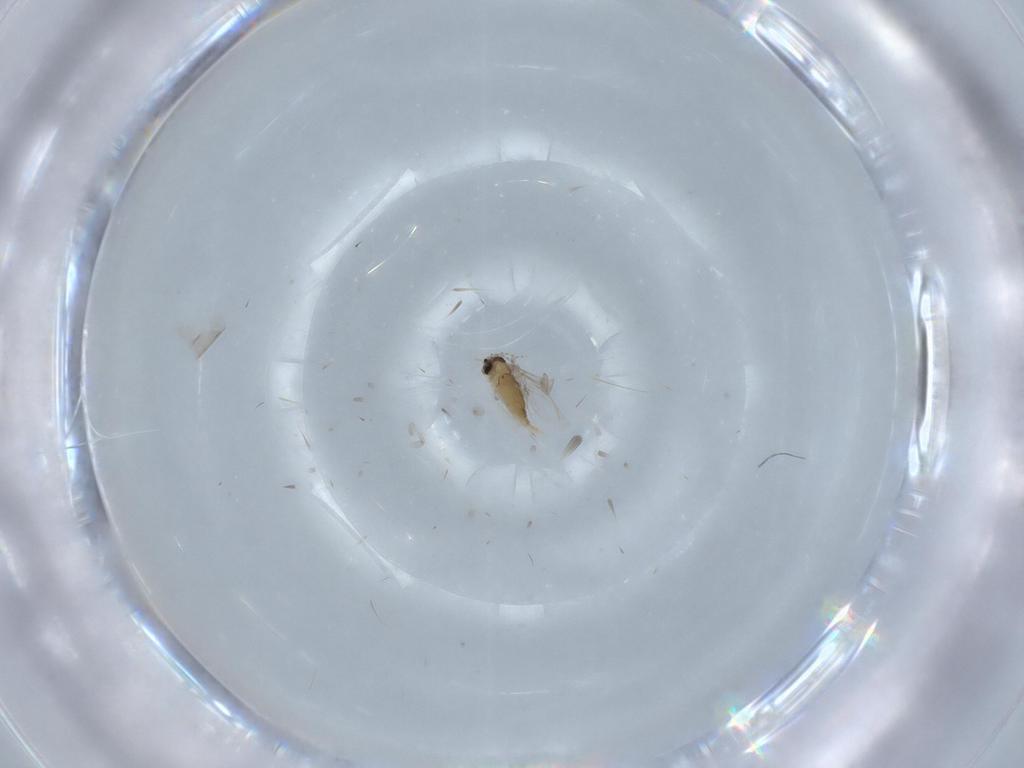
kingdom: Animalia
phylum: Arthropoda
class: Insecta
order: Diptera
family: Cecidomyiidae
